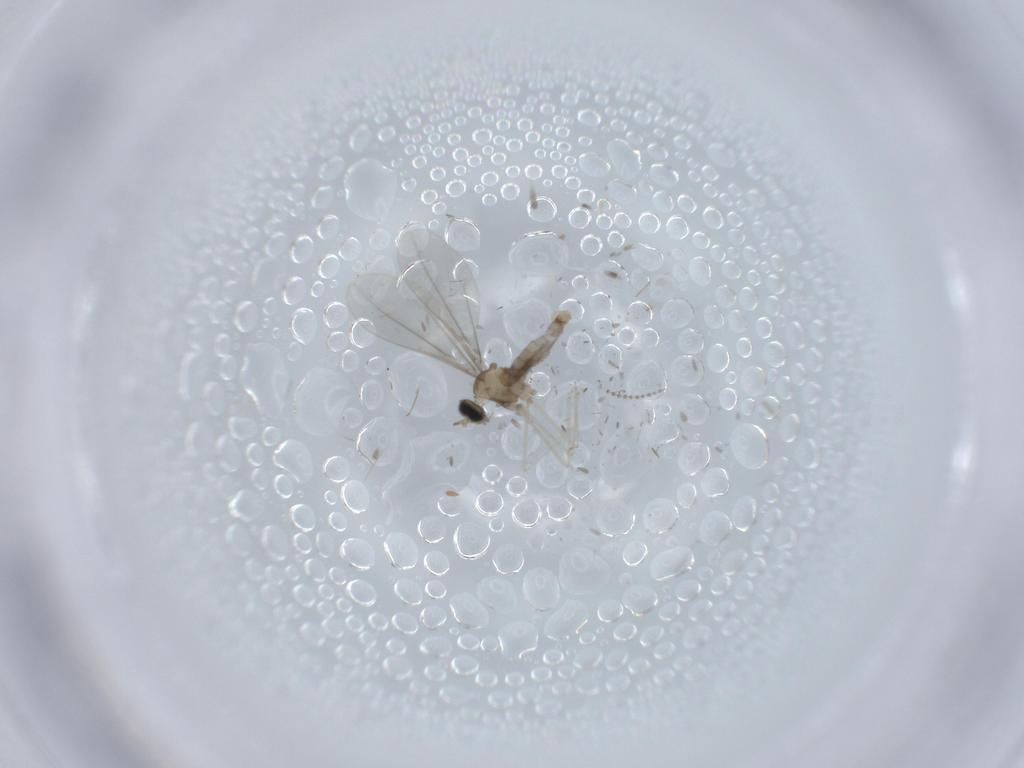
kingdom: Animalia
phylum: Arthropoda
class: Insecta
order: Diptera
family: Cecidomyiidae
